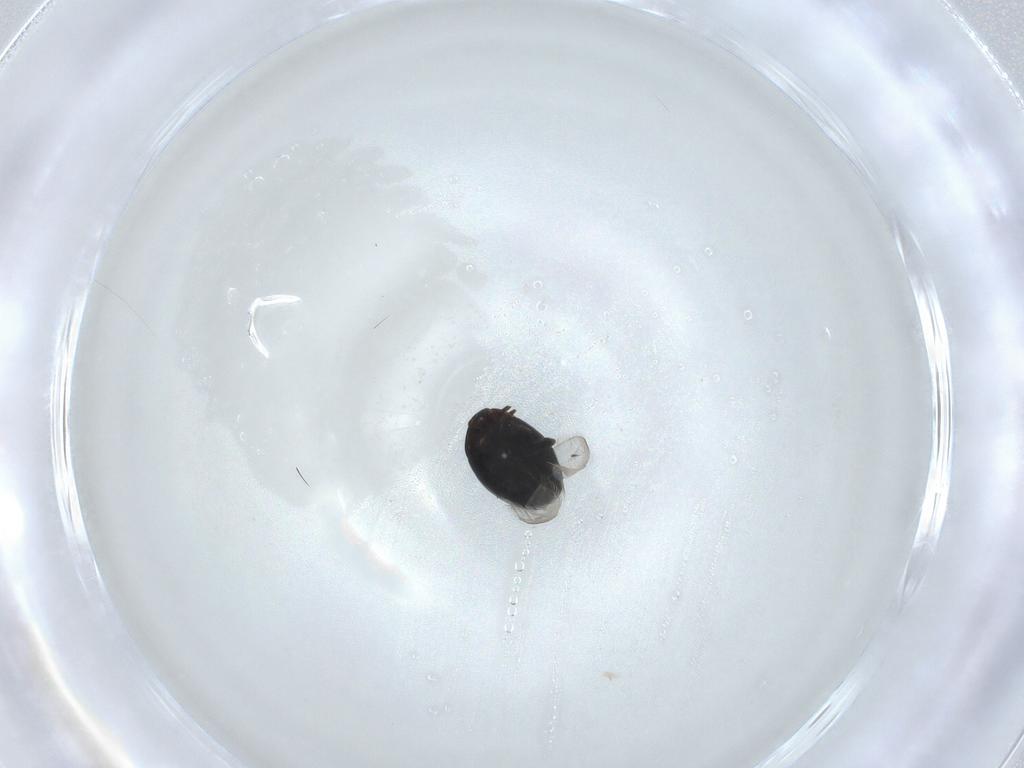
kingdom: Animalia
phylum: Arthropoda
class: Insecta
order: Coleoptera
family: Corylophidae
